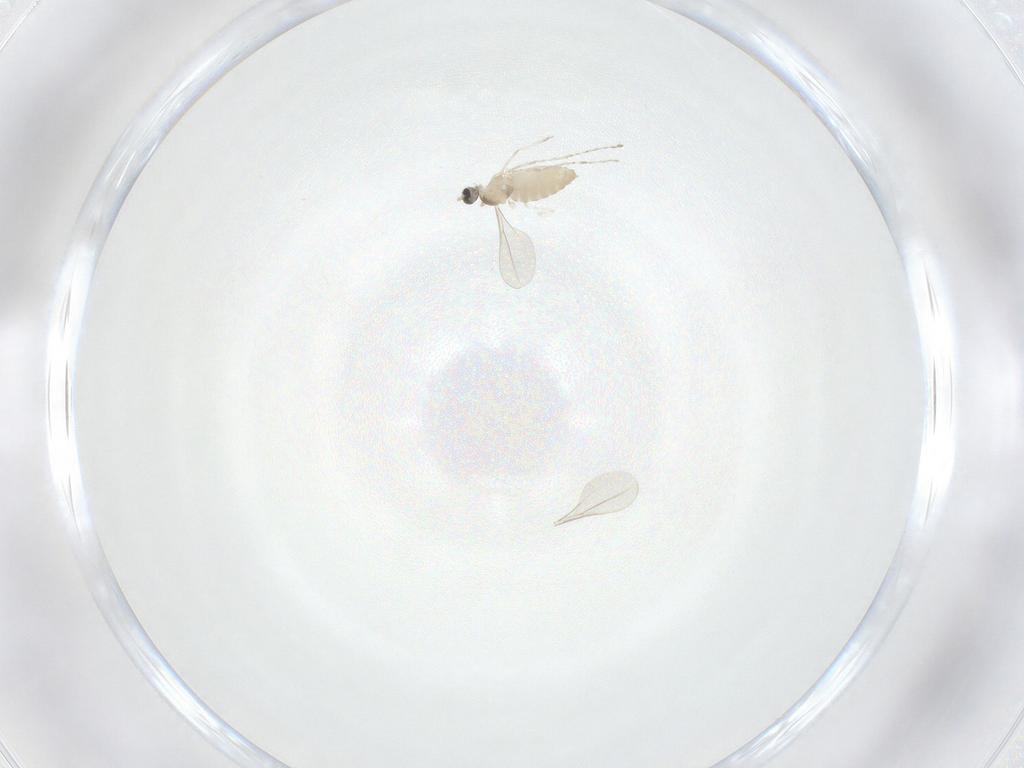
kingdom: Animalia
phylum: Arthropoda
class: Insecta
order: Diptera
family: Cecidomyiidae
